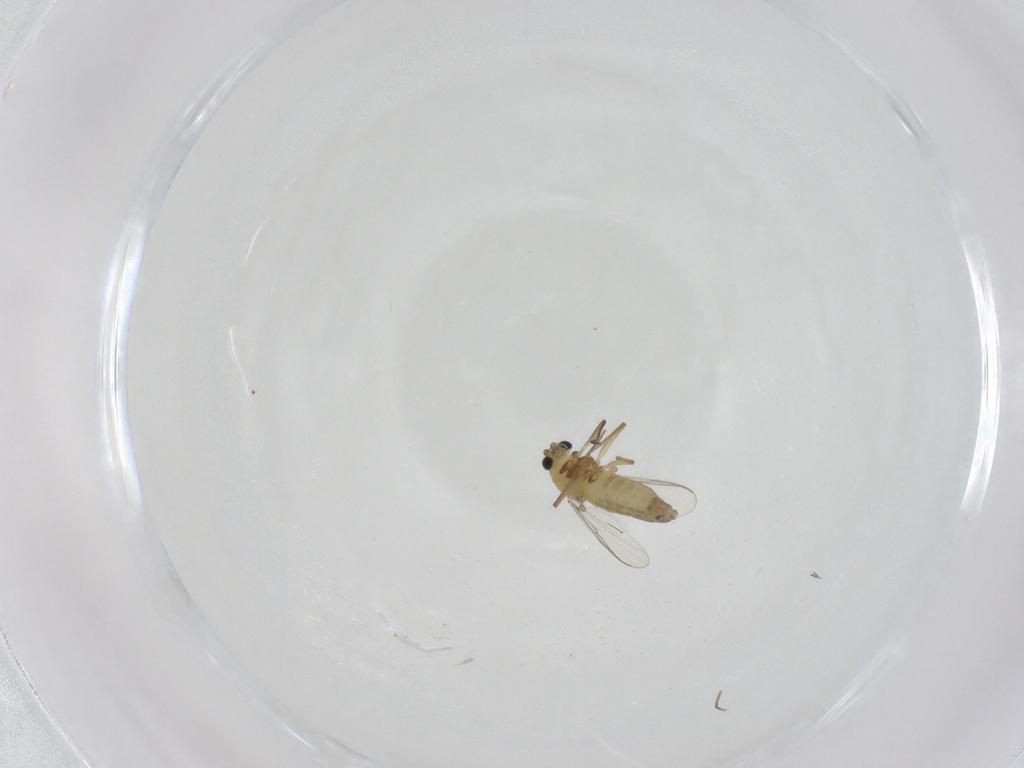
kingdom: Animalia
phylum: Arthropoda
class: Insecta
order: Diptera
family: Chironomidae
